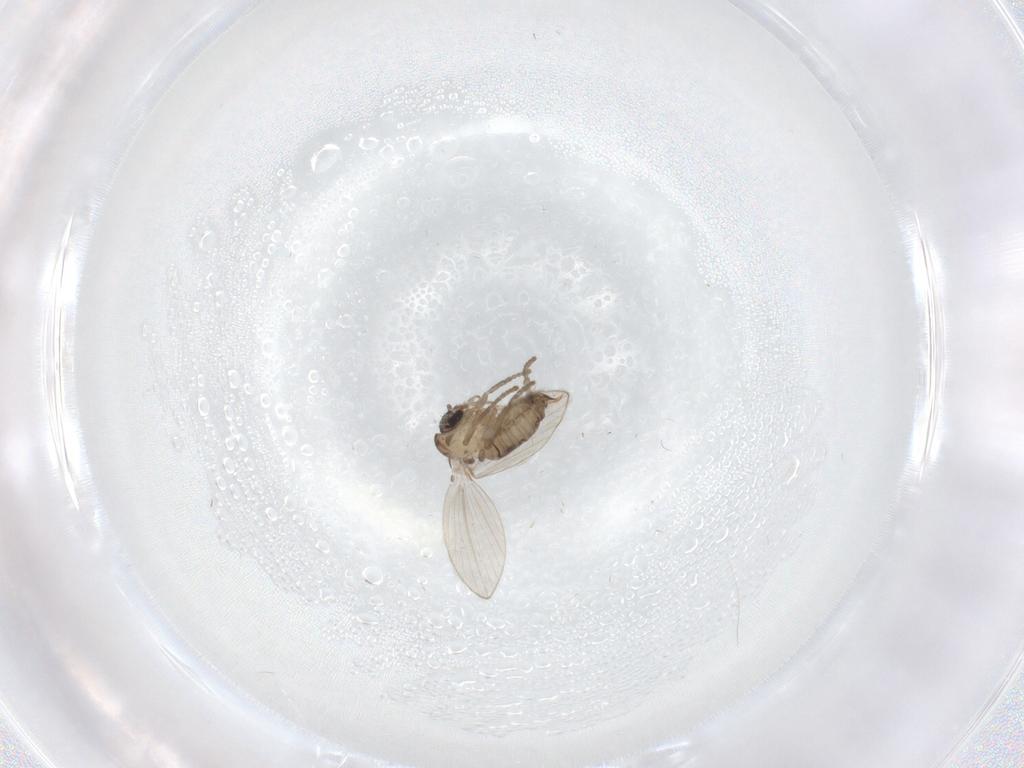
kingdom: Animalia
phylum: Arthropoda
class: Insecta
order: Diptera
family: Psychodidae
